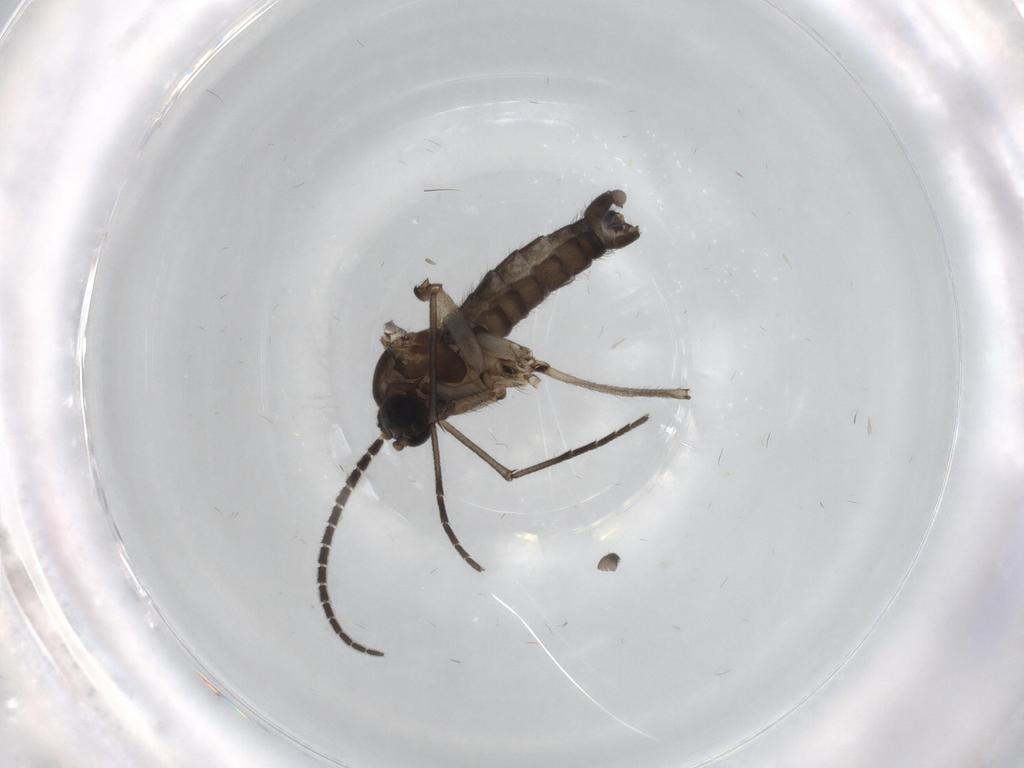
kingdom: Animalia
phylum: Arthropoda
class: Insecta
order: Diptera
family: Sciaridae
